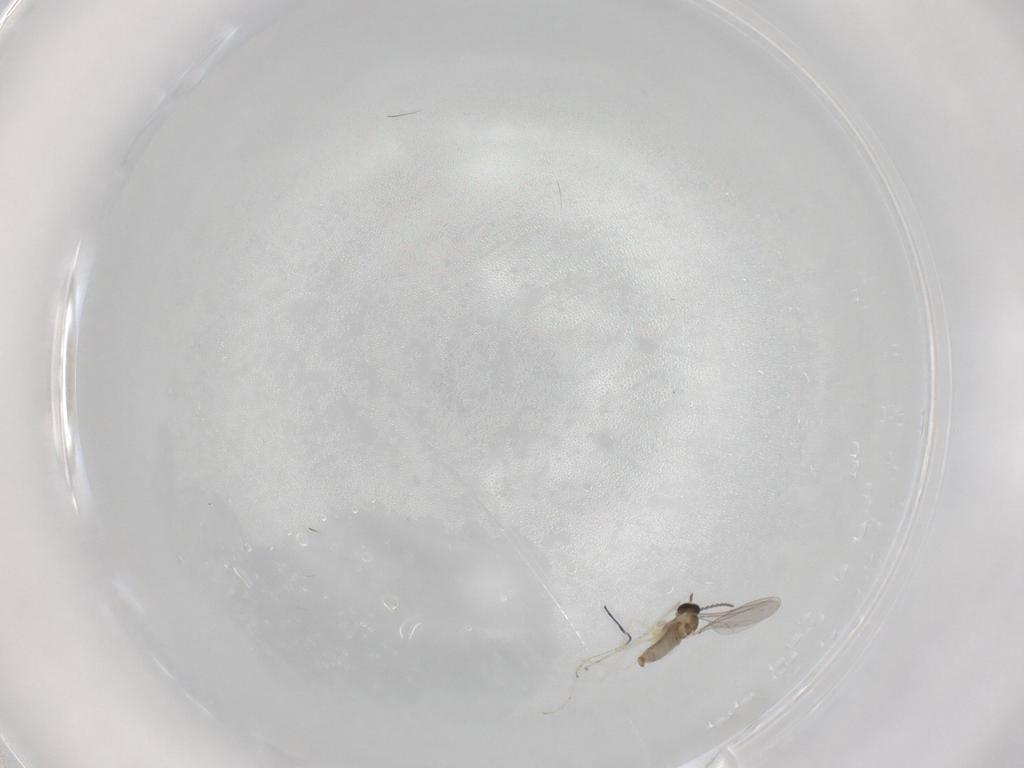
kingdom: Animalia
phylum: Arthropoda
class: Insecta
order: Diptera
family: Cecidomyiidae
